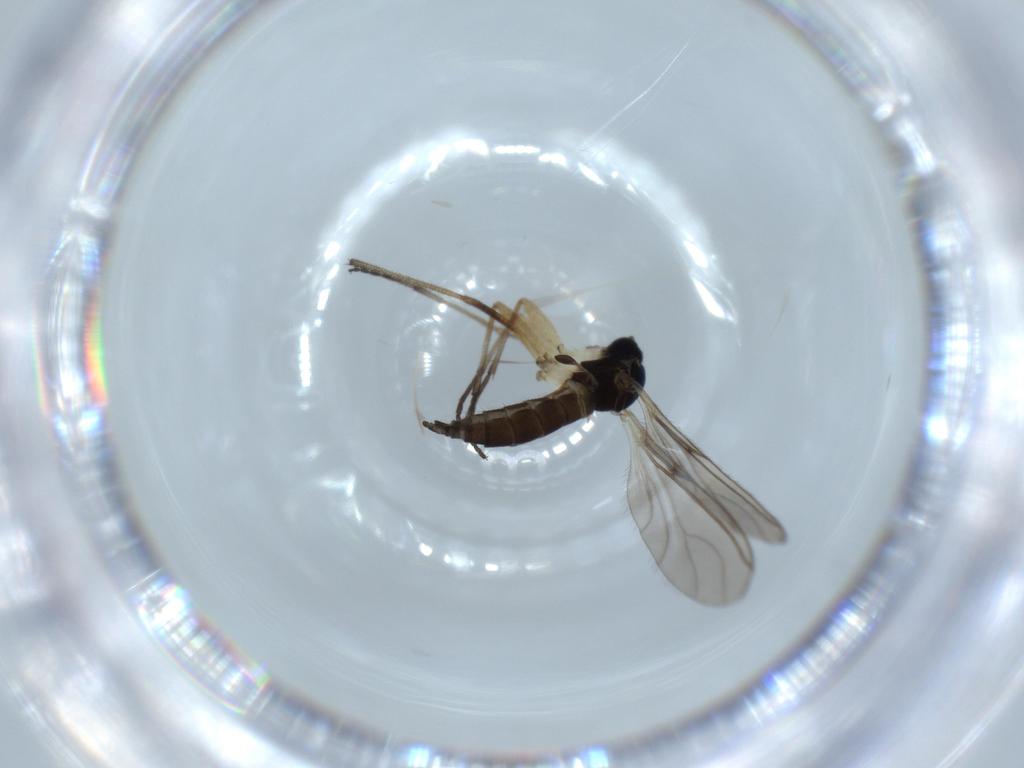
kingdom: Animalia
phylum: Arthropoda
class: Insecta
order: Diptera
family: Sciaridae
